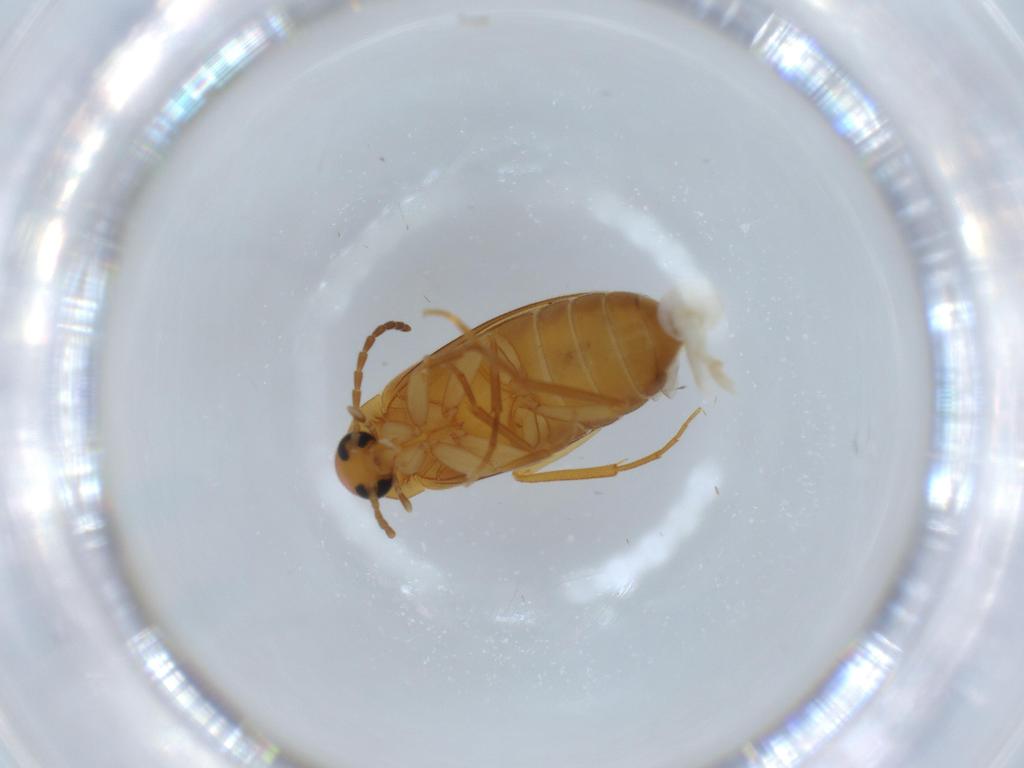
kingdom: Animalia
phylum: Arthropoda
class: Insecta
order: Coleoptera
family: Scraptiidae
